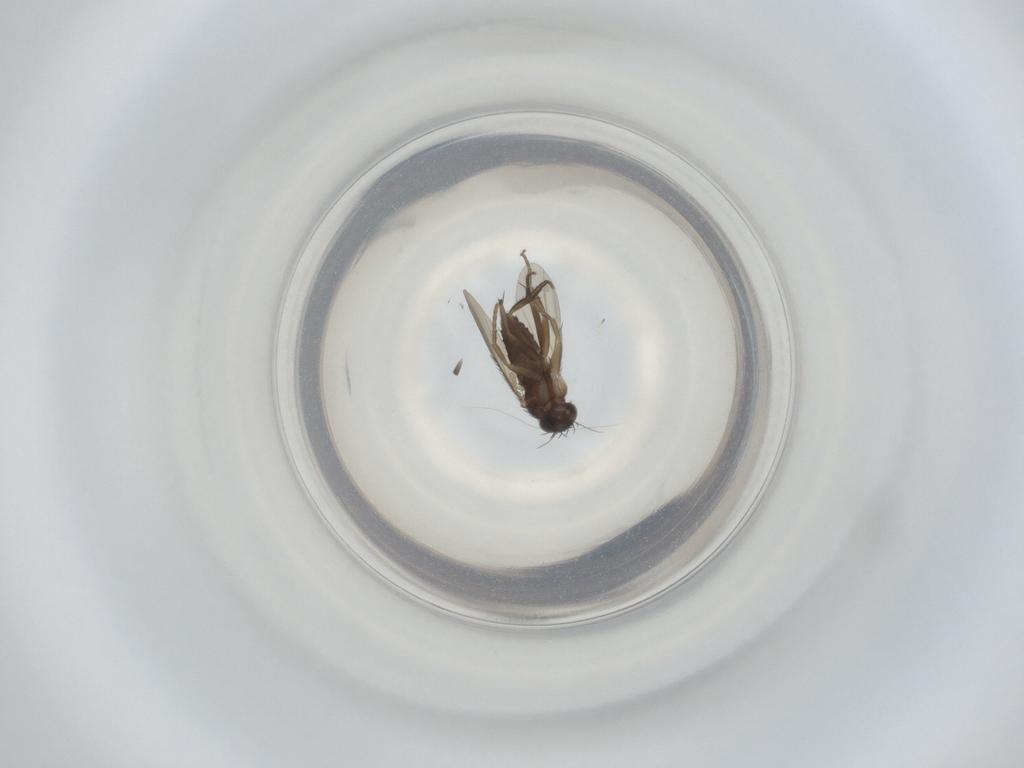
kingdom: Animalia
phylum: Arthropoda
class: Insecta
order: Diptera
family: Phoridae
